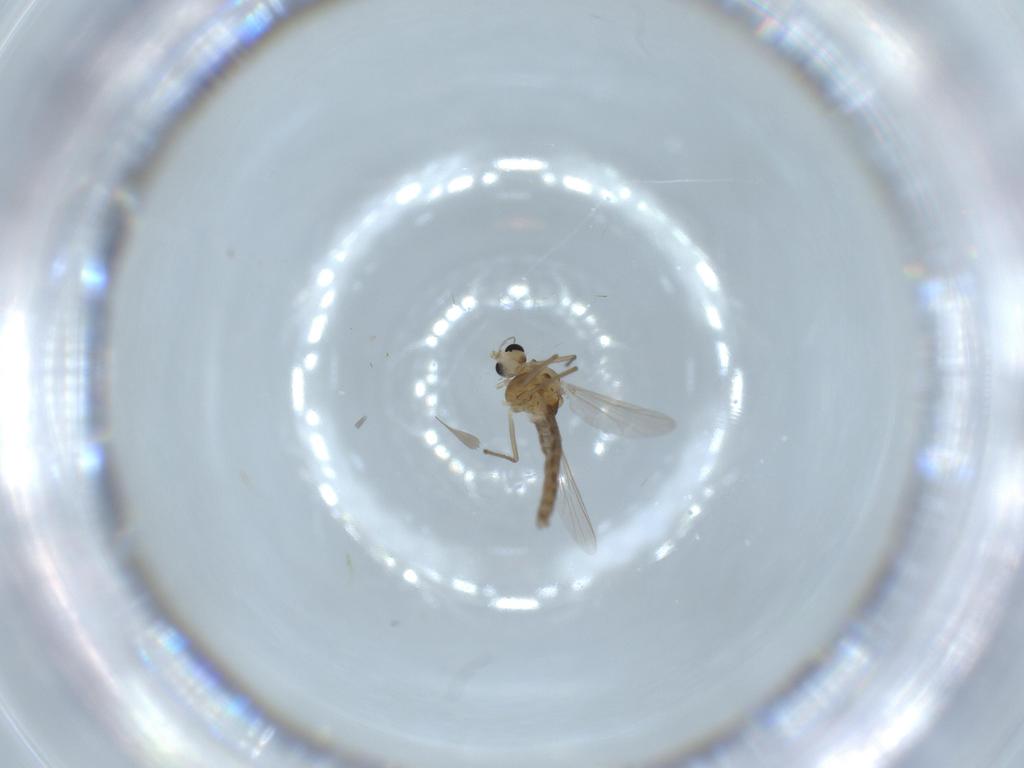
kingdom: Animalia
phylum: Arthropoda
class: Insecta
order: Diptera
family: Chironomidae
